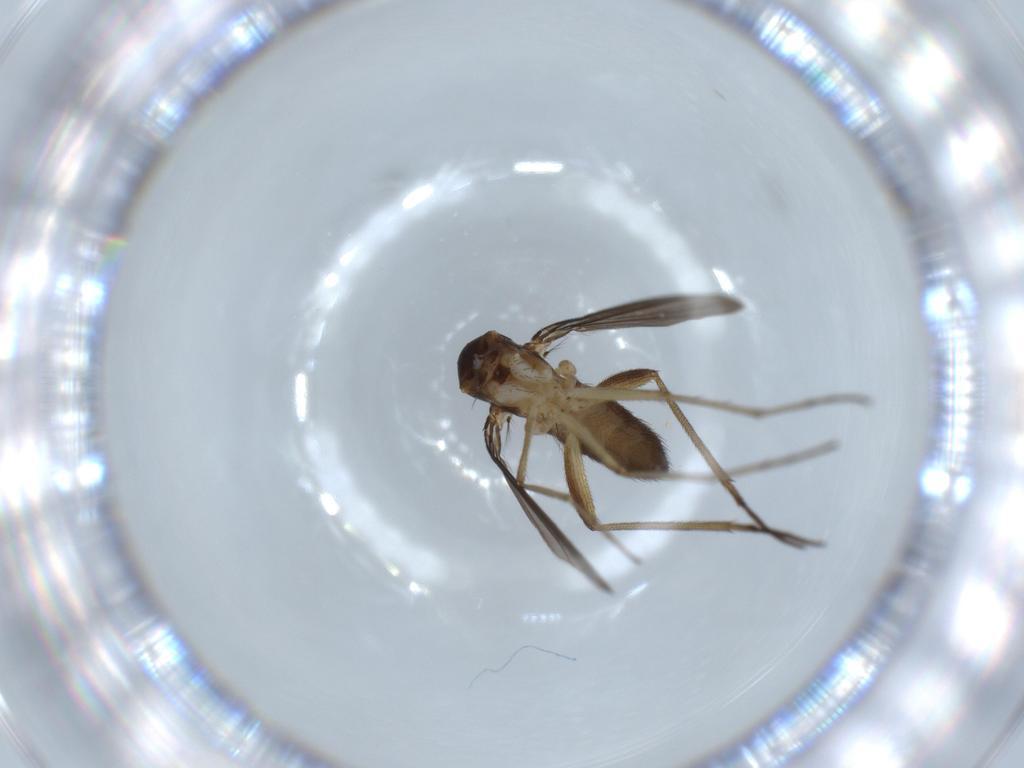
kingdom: Animalia
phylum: Arthropoda
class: Insecta
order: Diptera
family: Dolichopodidae
